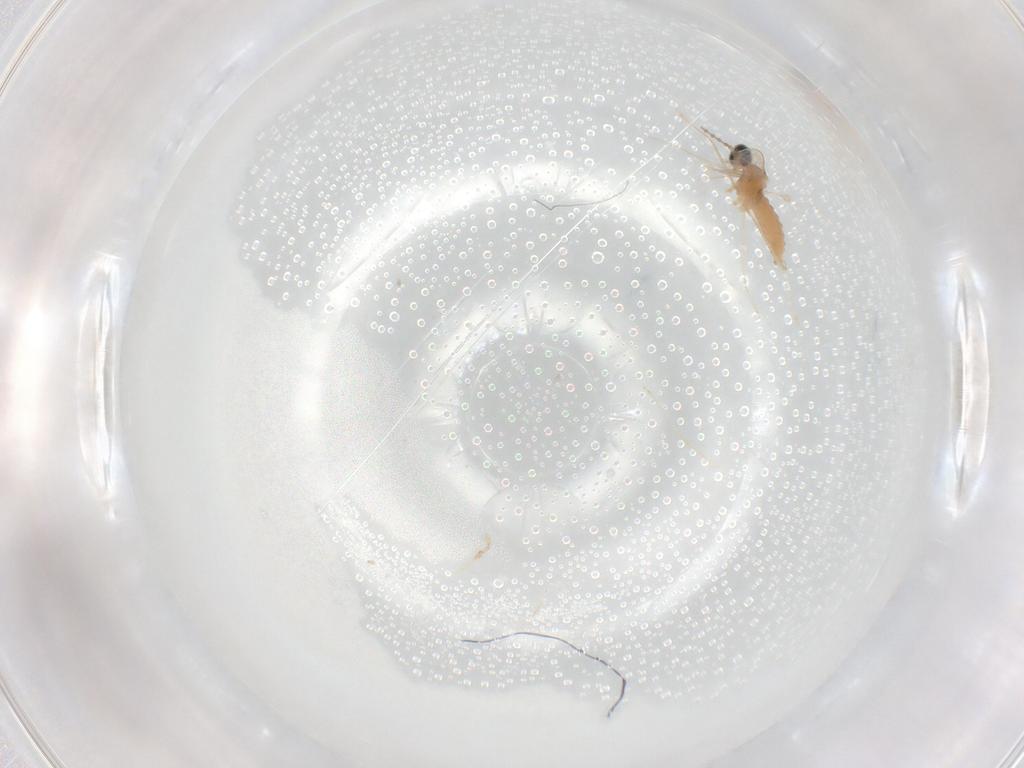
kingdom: Animalia
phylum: Arthropoda
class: Insecta
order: Diptera
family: Cecidomyiidae
